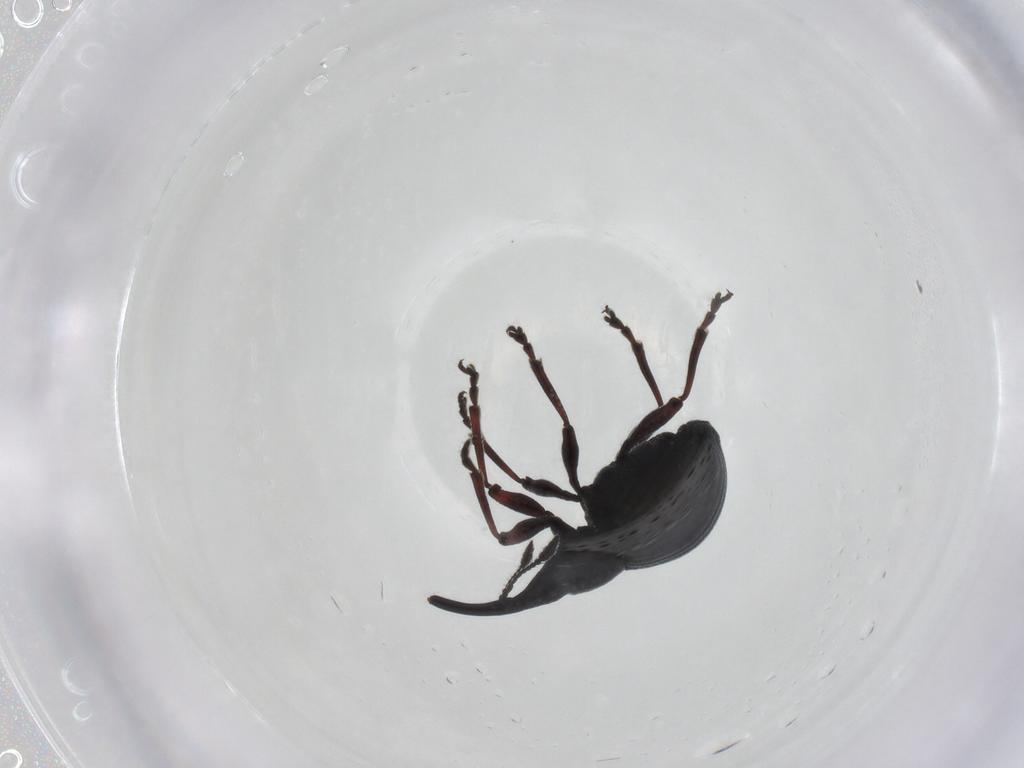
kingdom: Animalia
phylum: Arthropoda
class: Insecta
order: Coleoptera
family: Brentidae
